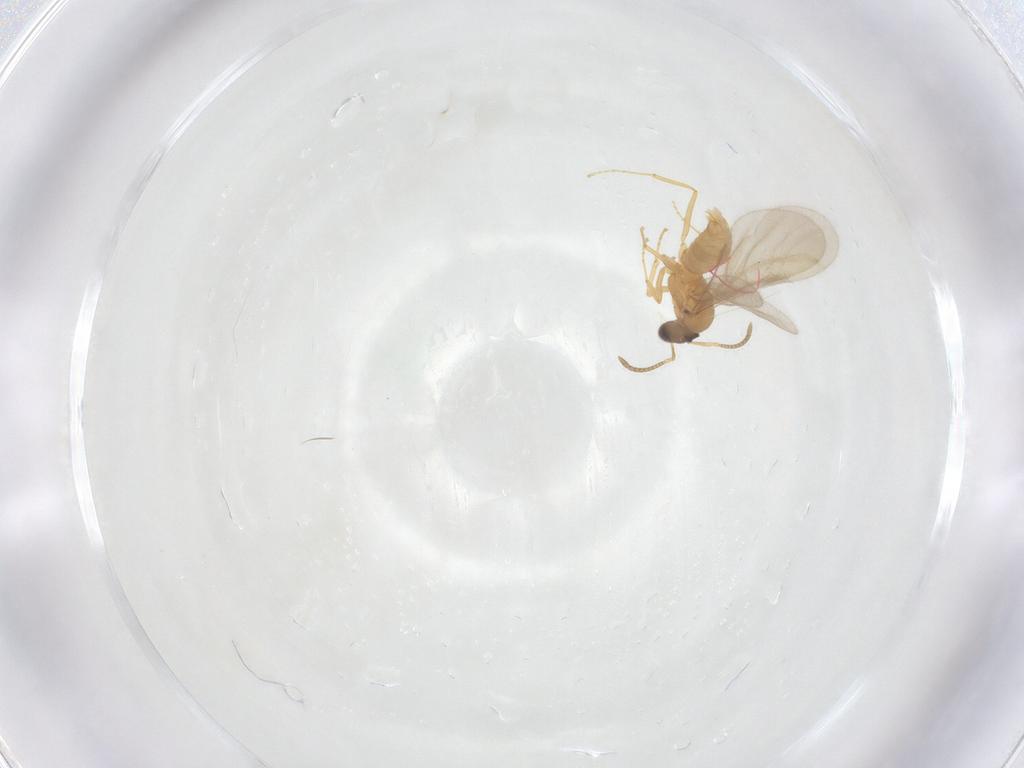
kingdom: Animalia
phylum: Arthropoda
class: Insecta
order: Hymenoptera
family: Formicidae
